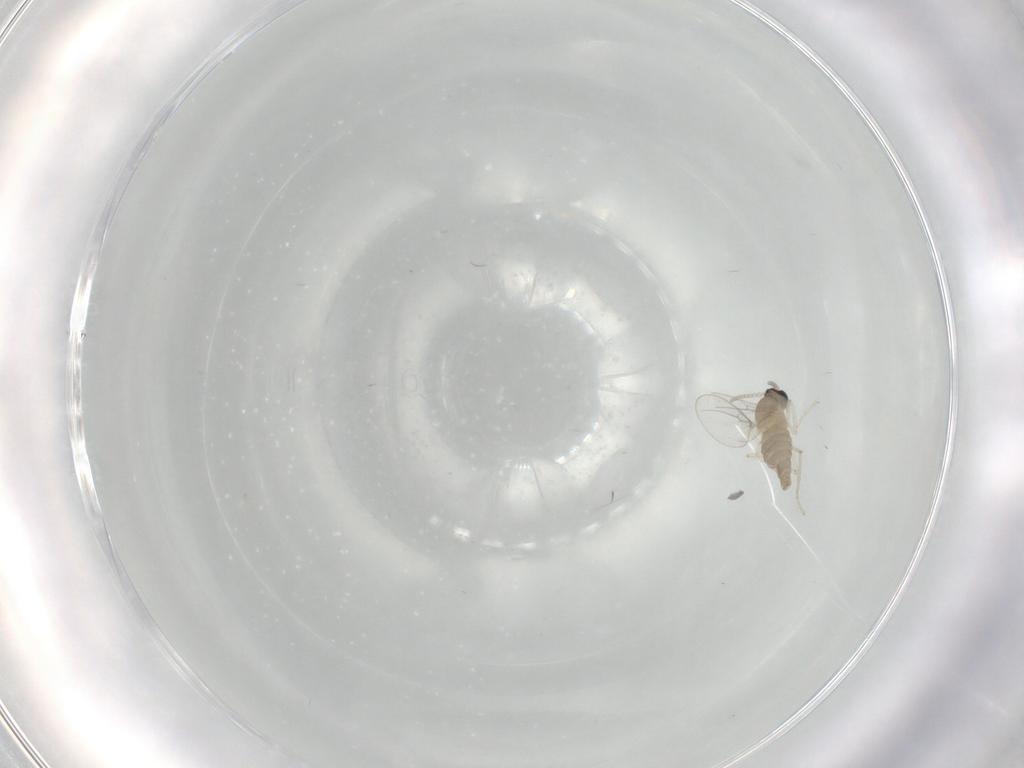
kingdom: Animalia
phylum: Arthropoda
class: Insecta
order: Diptera
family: Cecidomyiidae
